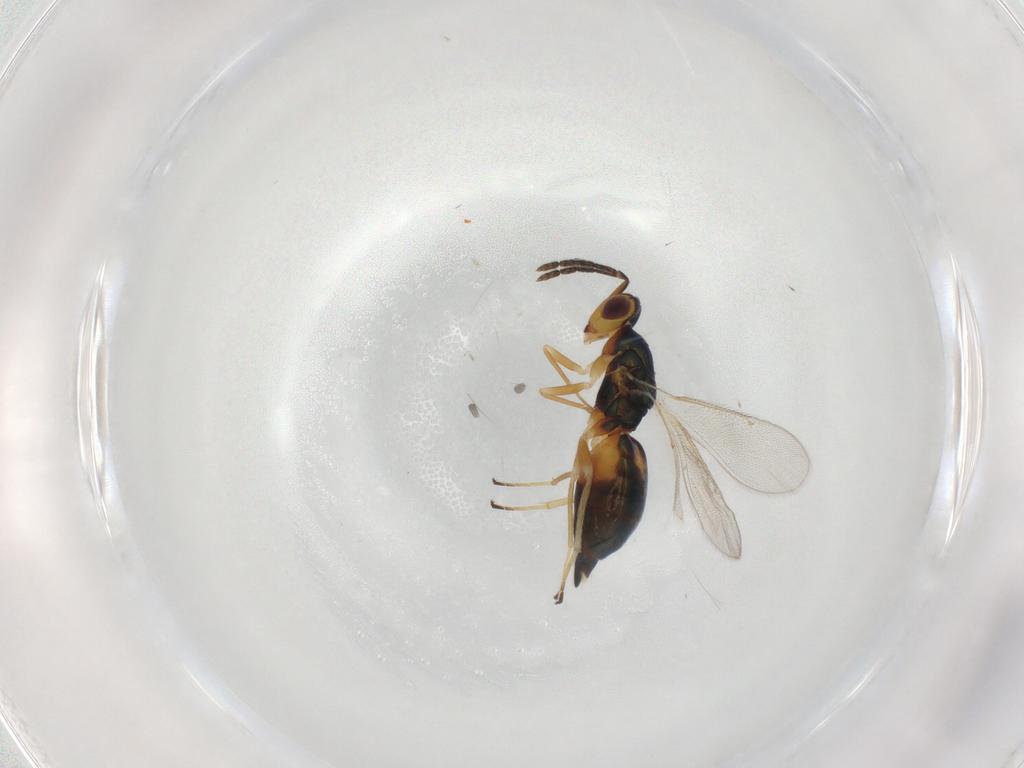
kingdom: Animalia
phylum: Arthropoda
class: Insecta
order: Hymenoptera
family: Eulophidae
